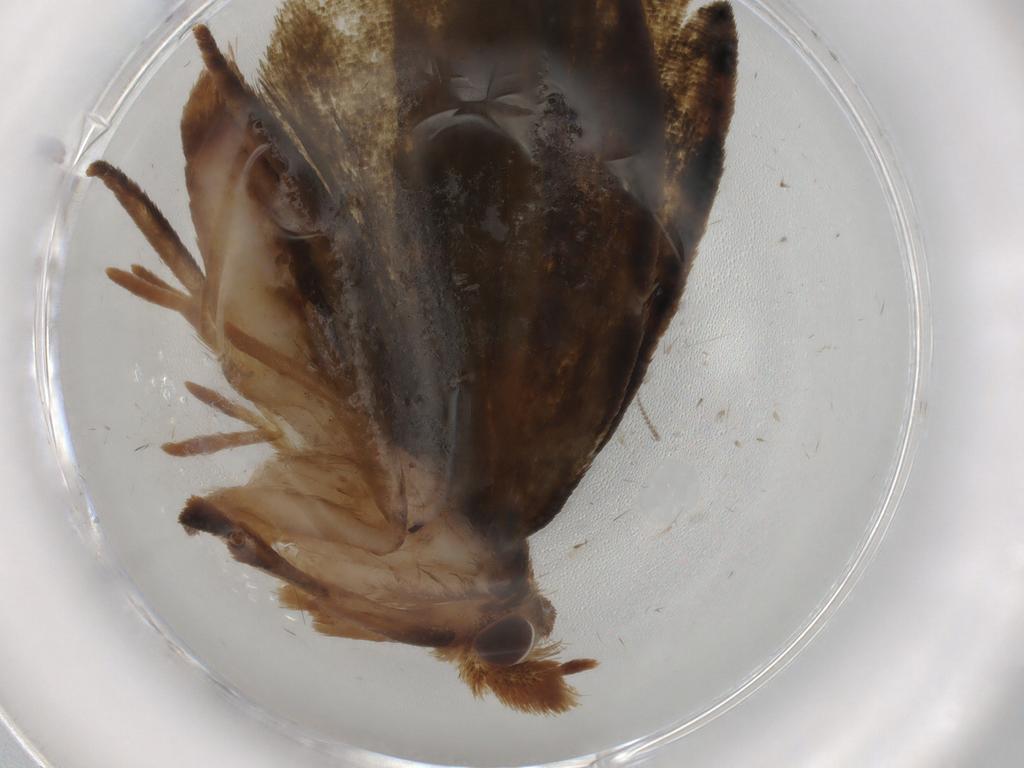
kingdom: Animalia
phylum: Arthropoda
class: Insecta
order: Lepidoptera
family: Geometridae
